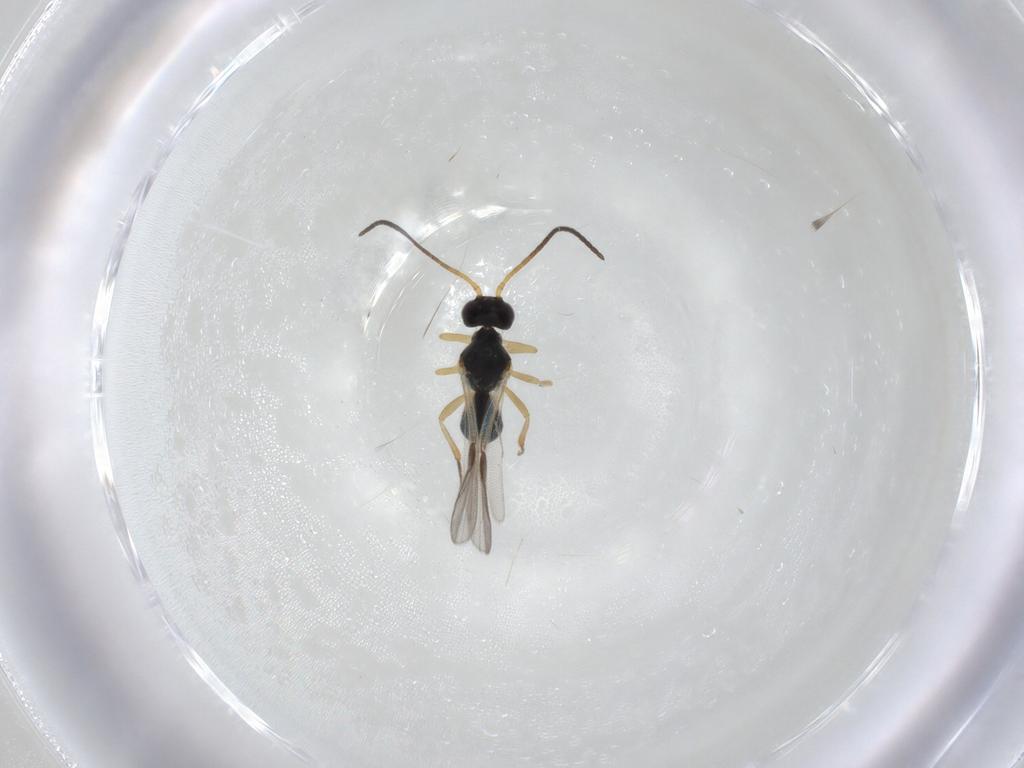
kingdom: Animalia
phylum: Arthropoda
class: Insecta
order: Hymenoptera
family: Braconidae
